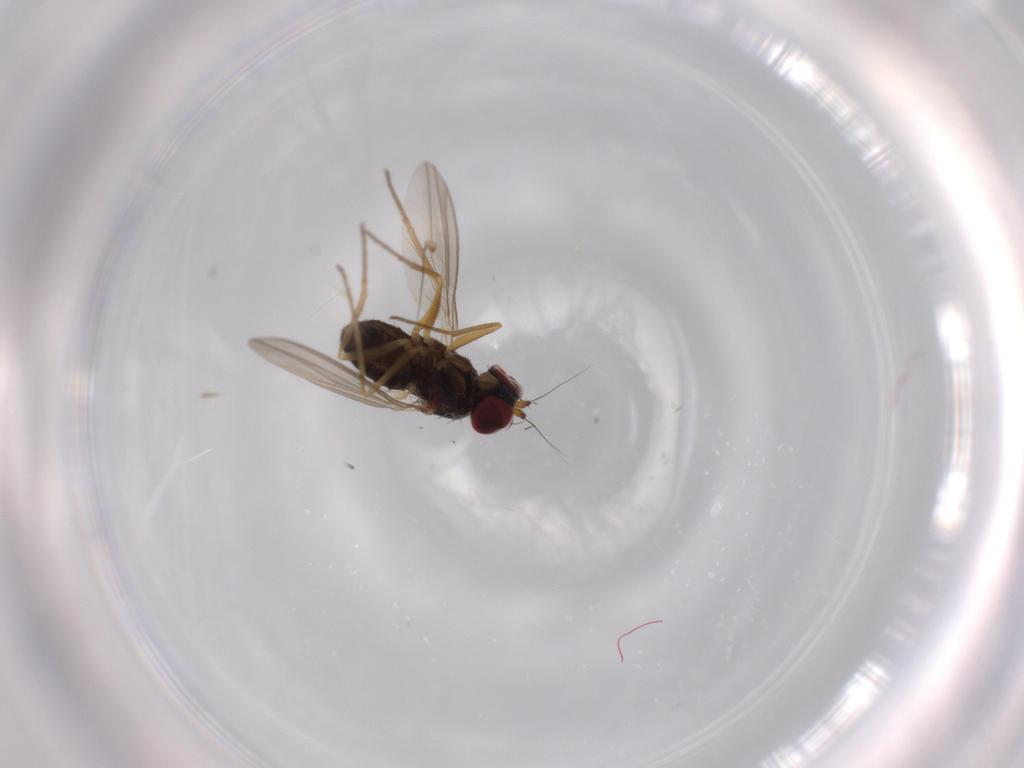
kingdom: Animalia
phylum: Arthropoda
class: Insecta
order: Diptera
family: Dolichopodidae
